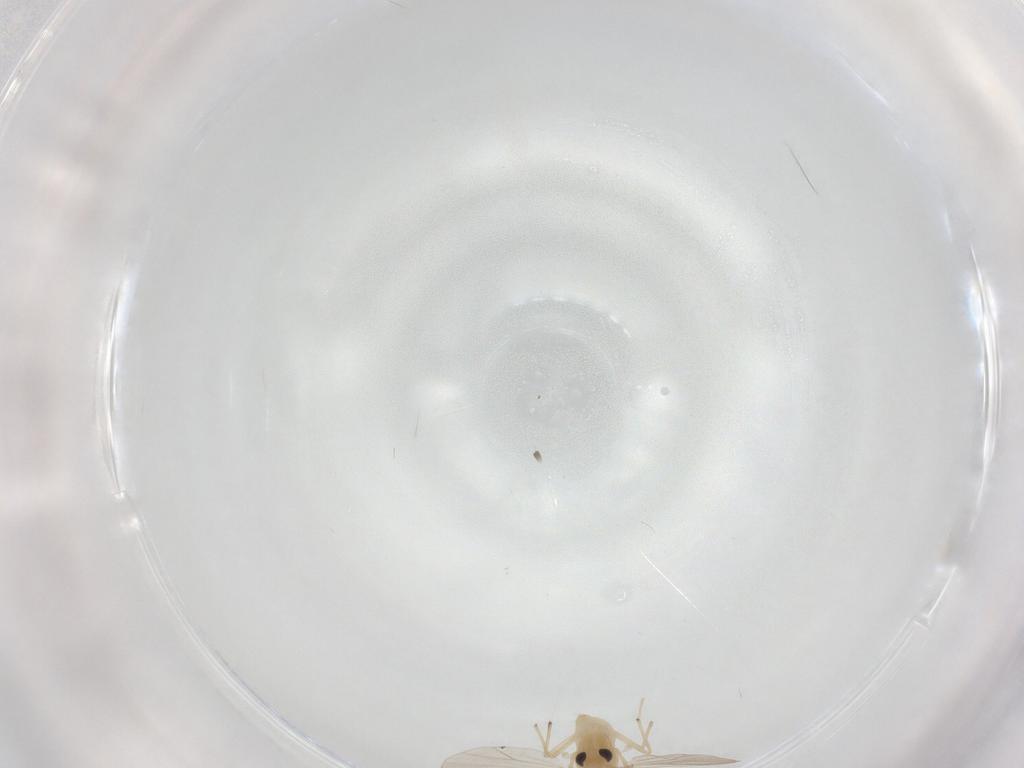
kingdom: Animalia
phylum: Arthropoda
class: Insecta
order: Diptera
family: Chironomidae
